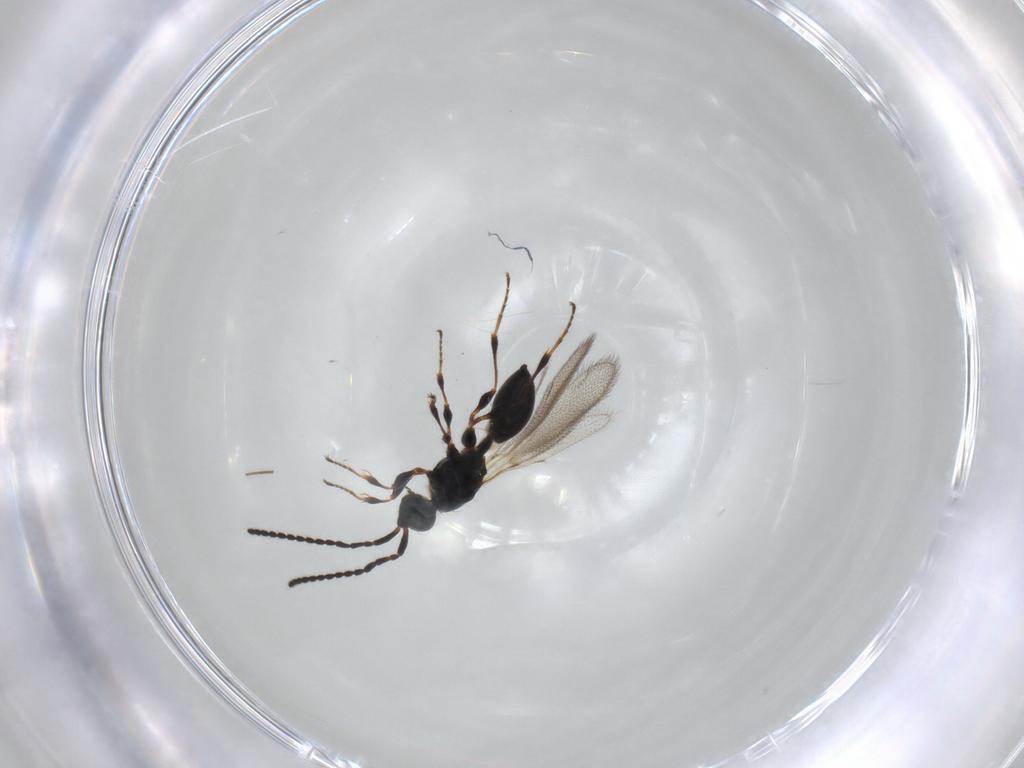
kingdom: Animalia
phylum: Arthropoda
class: Insecta
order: Hymenoptera
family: Diapriidae
